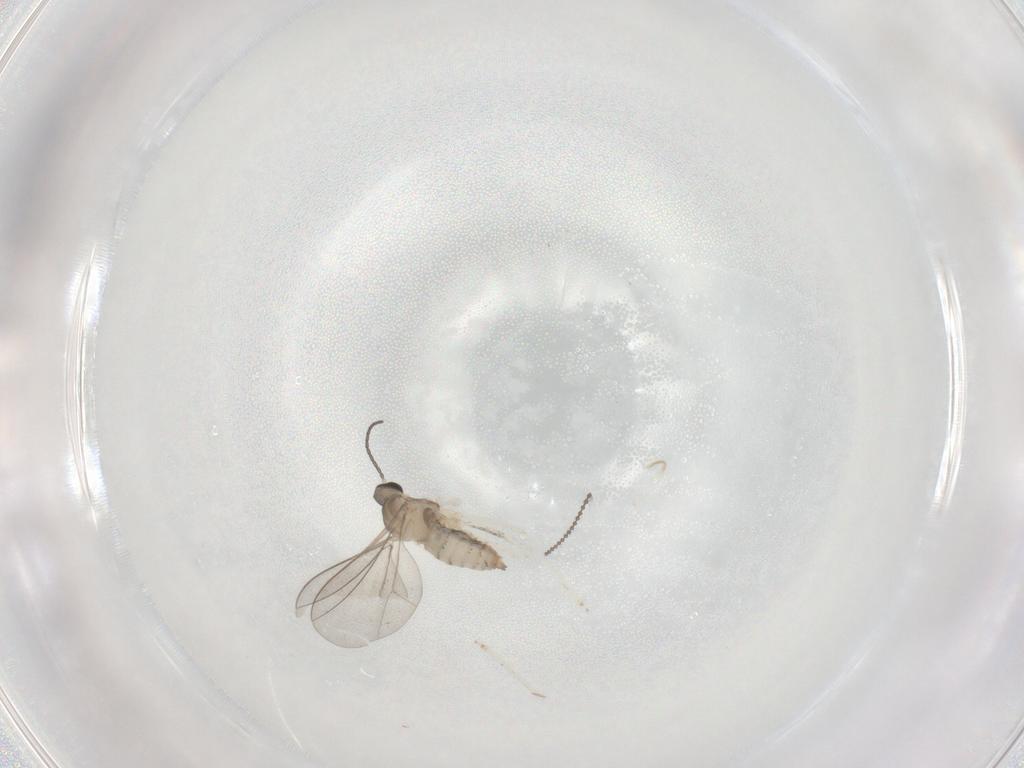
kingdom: Animalia
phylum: Arthropoda
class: Insecta
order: Diptera
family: Cecidomyiidae
